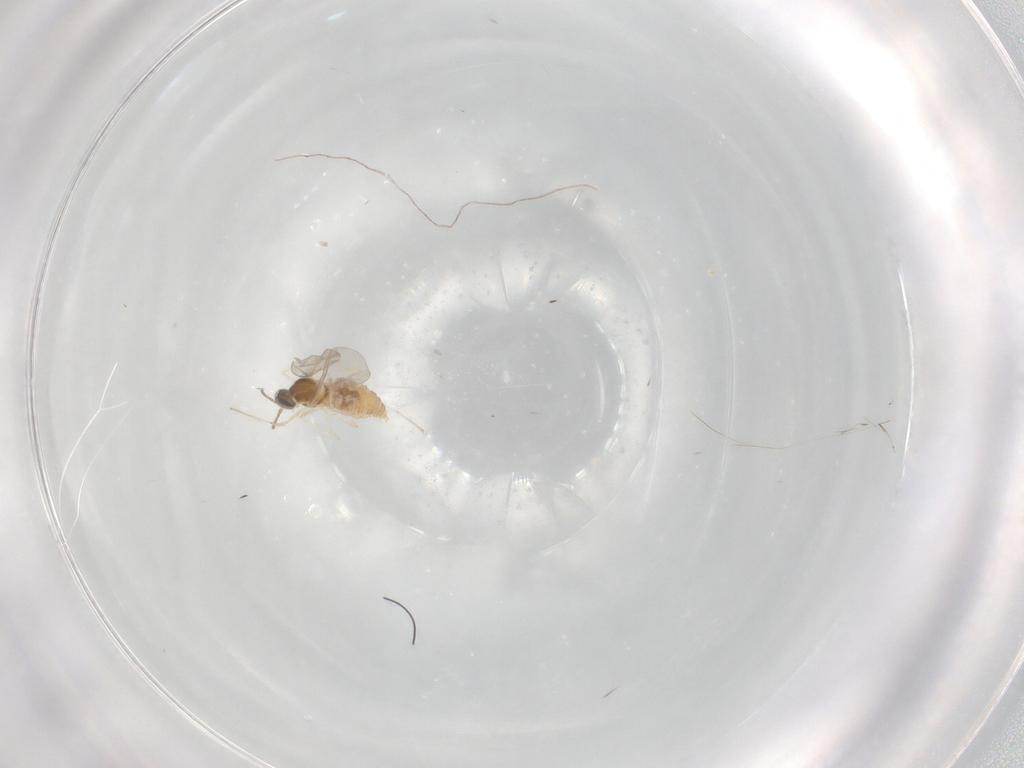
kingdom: Animalia
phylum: Arthropoda
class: Insecta
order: Diptera
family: Cecidomyiidae
